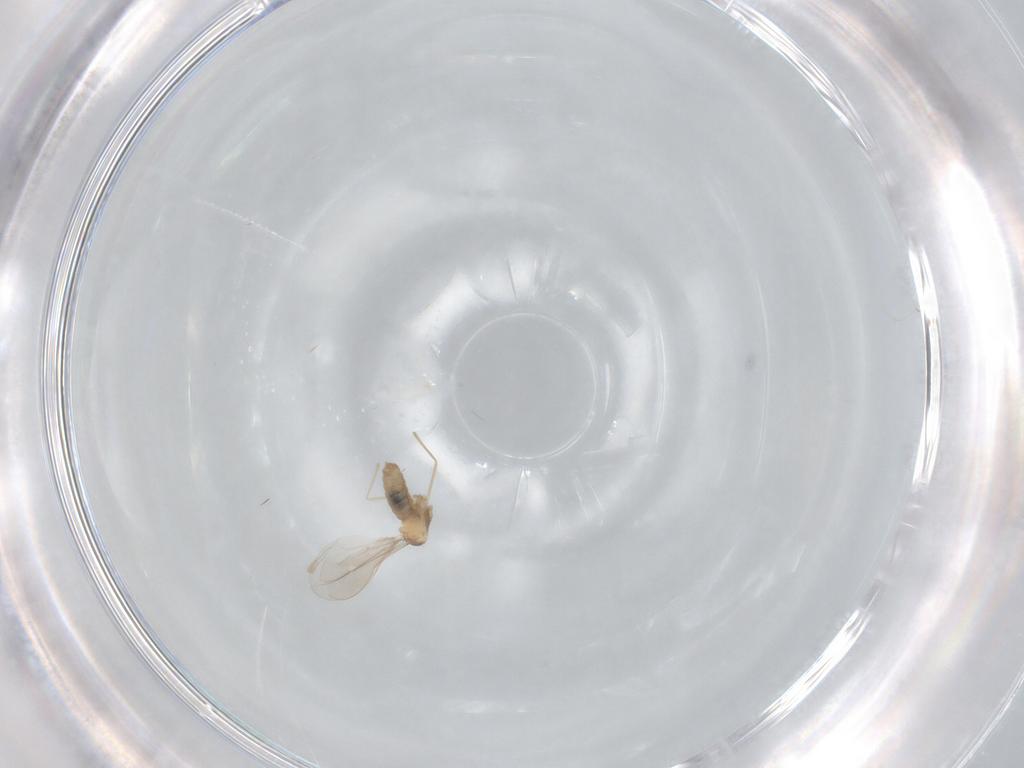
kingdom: Animalia
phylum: Arthropoda
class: Insecta
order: Diptera
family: Cecidomyiidae
